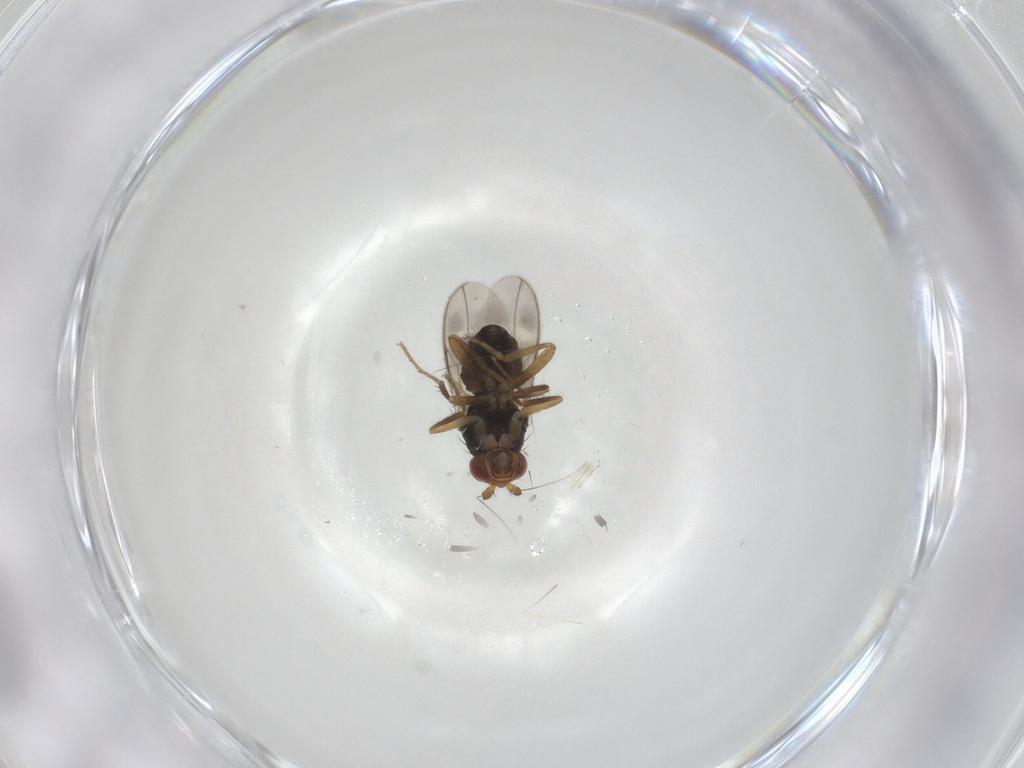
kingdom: Animalia
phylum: Arthropoda
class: Insecta
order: Diptera
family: Sphaeroceridae
